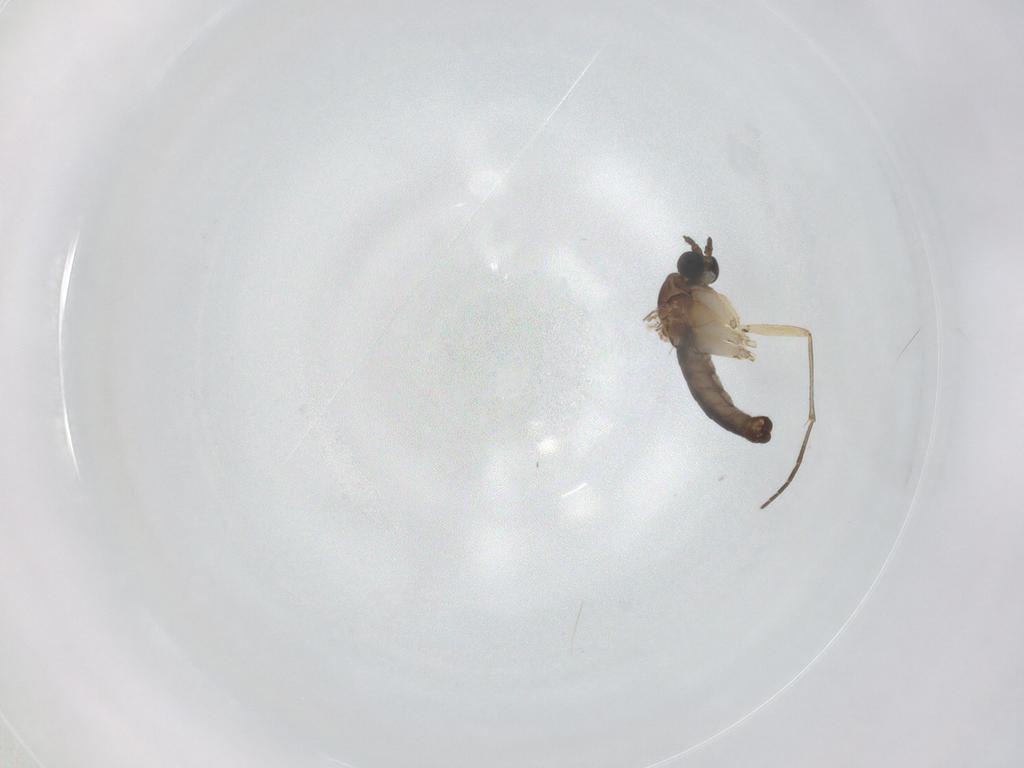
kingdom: Animalia
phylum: Arthropoda
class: Insecta
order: Diptera
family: Sciaridae
